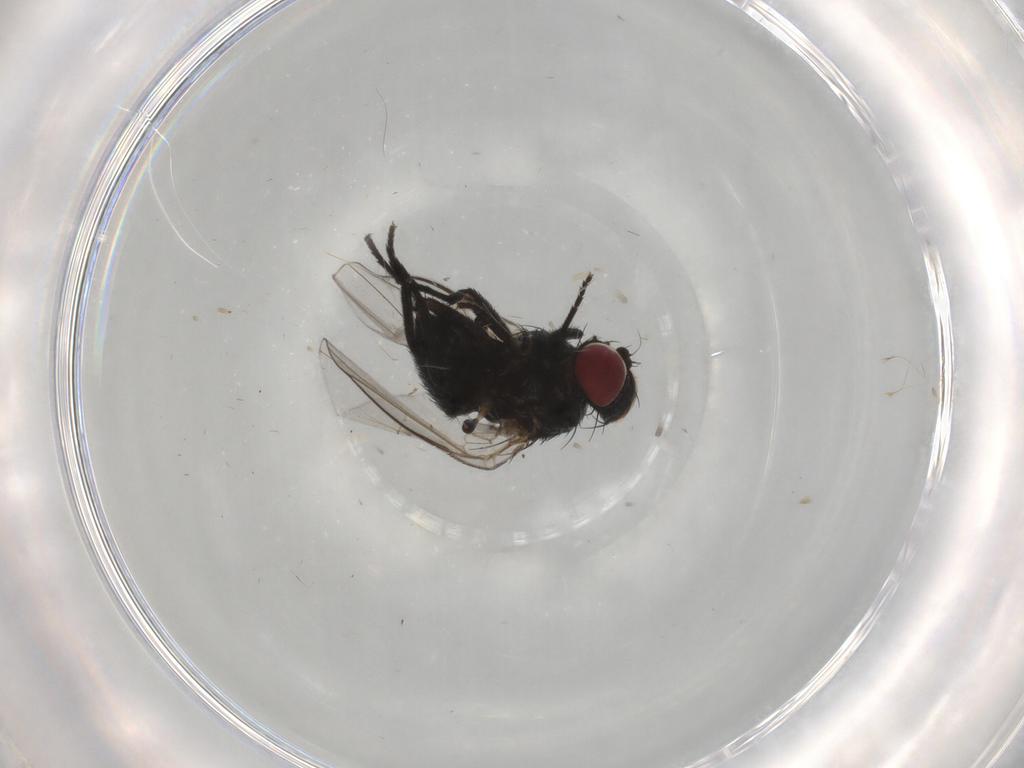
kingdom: Animalia
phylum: Arthropoda
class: Insecta
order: Diptera
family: Agromyzidae
